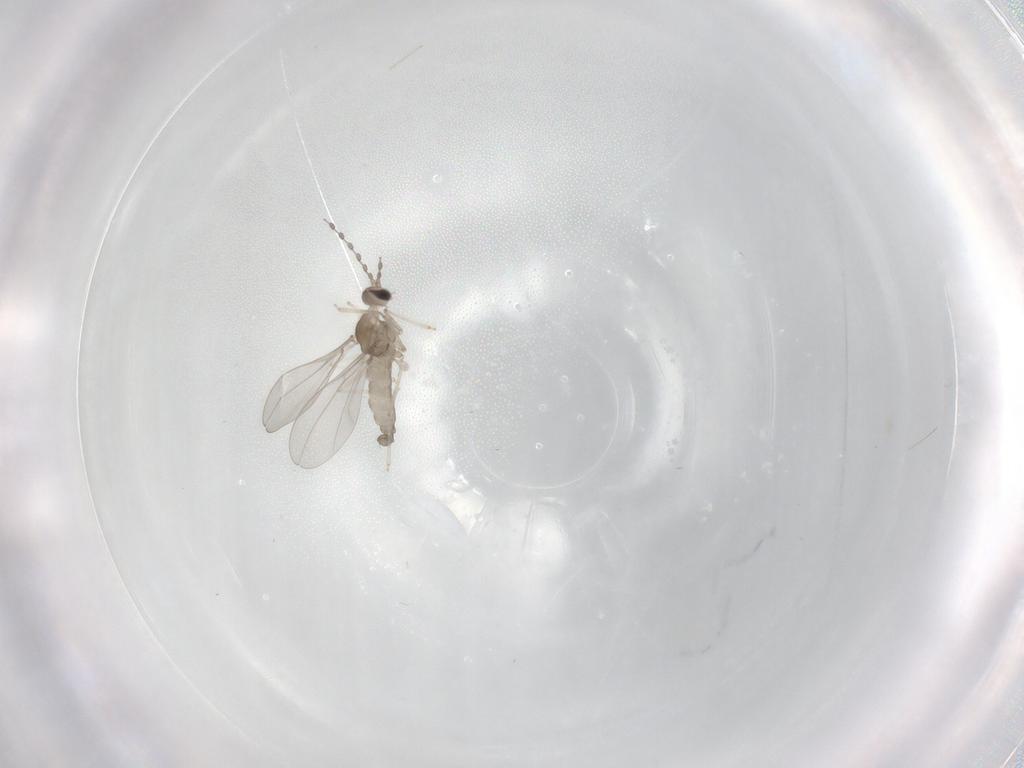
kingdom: Animalia
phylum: Arthropoda
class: Insecta
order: Diptera
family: Cecidomyiidae
